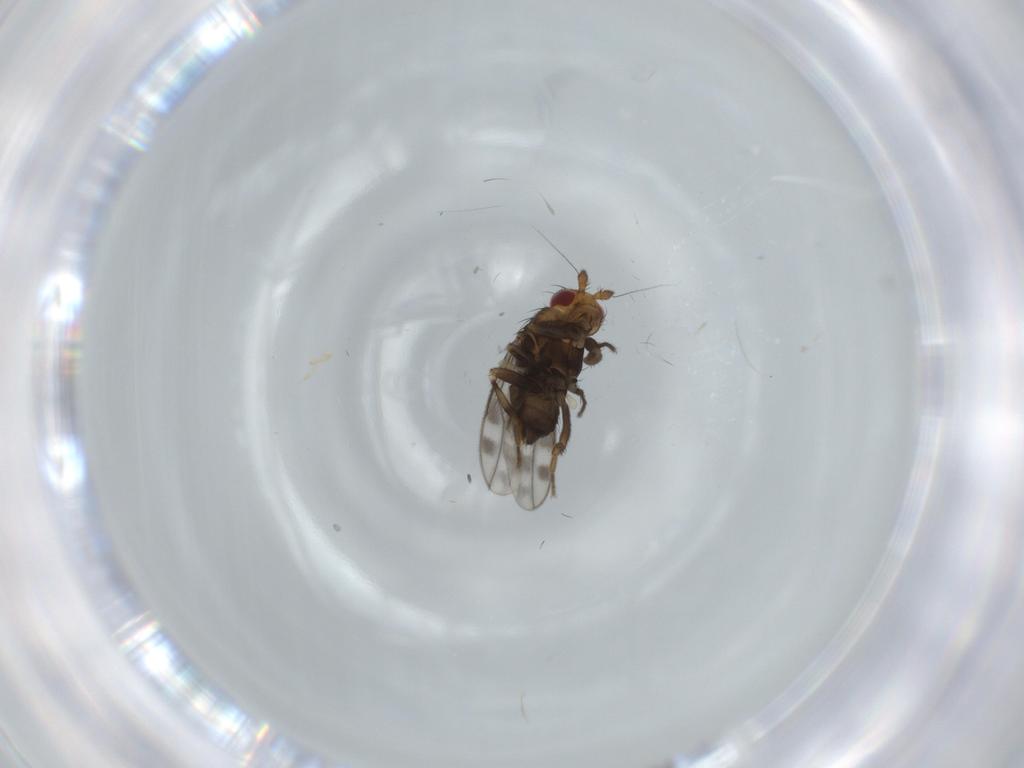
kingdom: Animalia
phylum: Arthropoda
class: Insecta
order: Diptera
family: Sphaeroceridae
